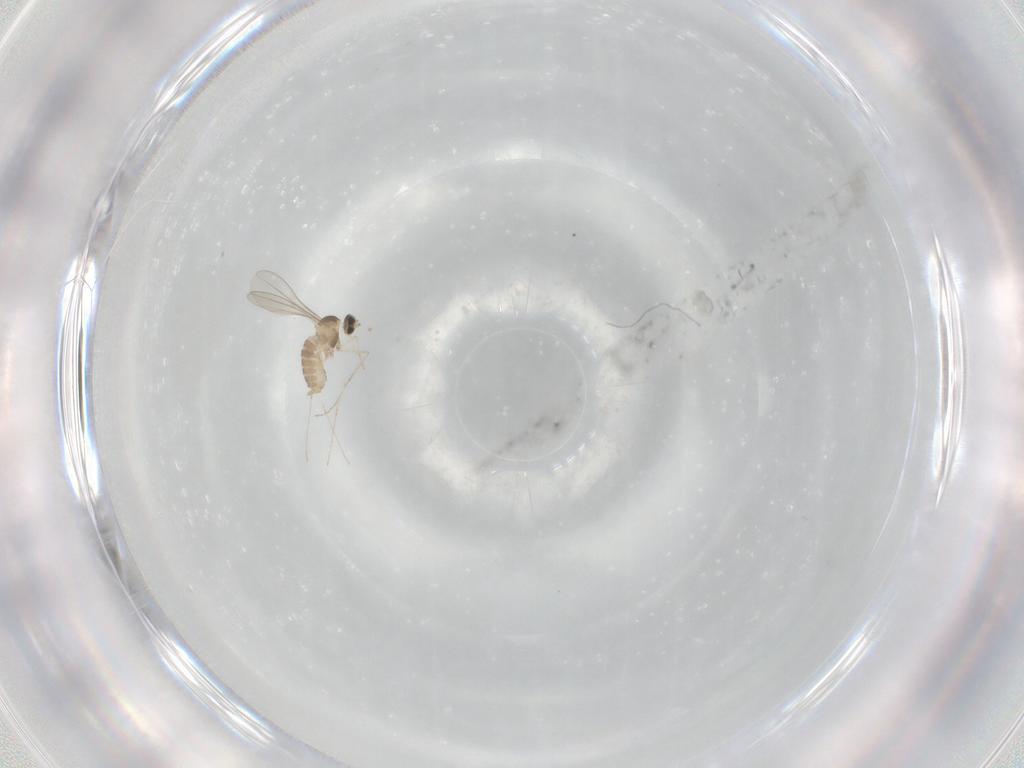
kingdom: Animalia
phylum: Arthropoda
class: Insecta
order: Diptera
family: Cecidomyiidae
